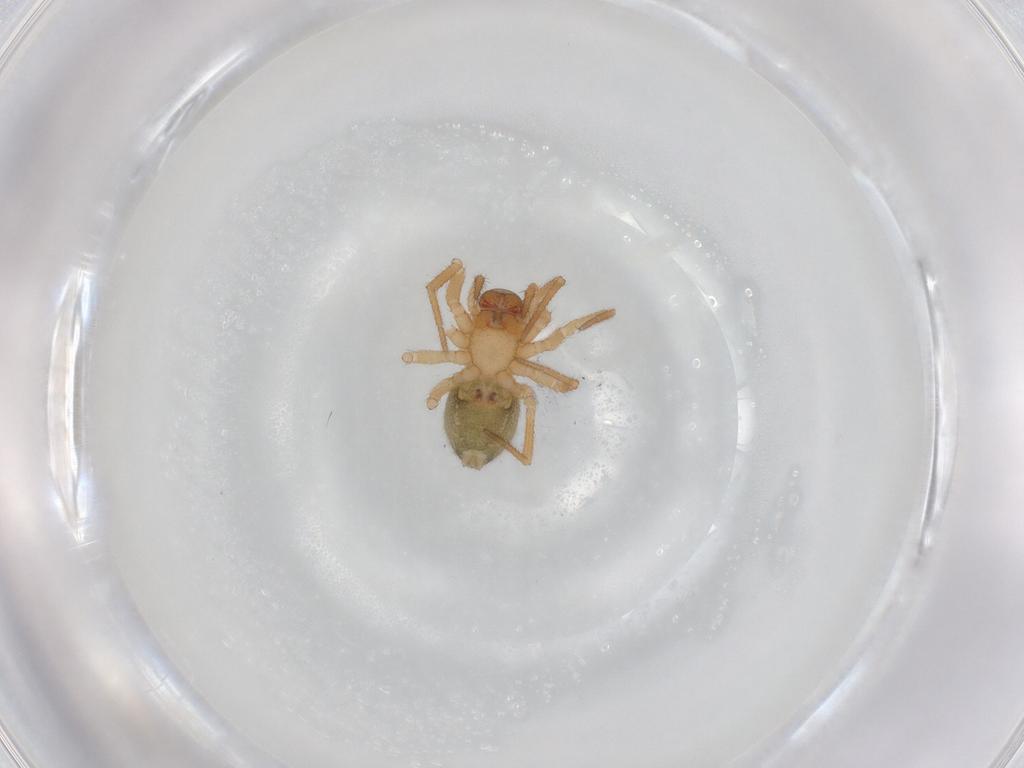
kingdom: Animalia
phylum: Arthropoda
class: Arachnida
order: Araneae
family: Linyphiidae
